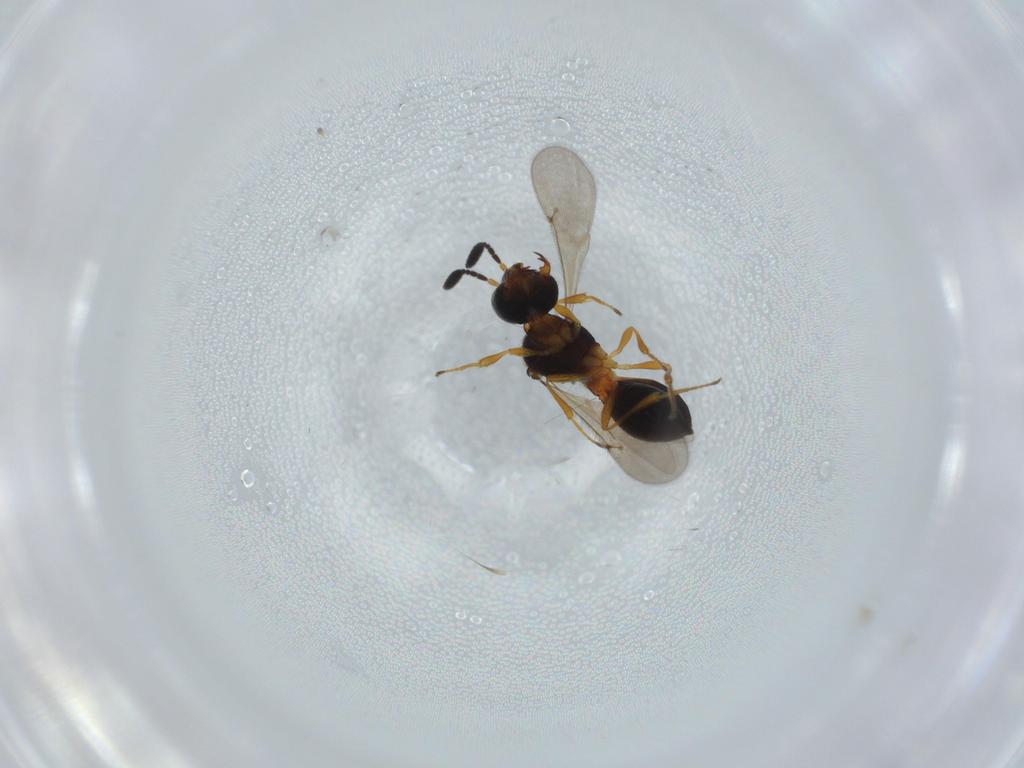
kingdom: Animalia
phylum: Arthropoda
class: Insecta
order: Hymenoptera
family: Scelionidae
